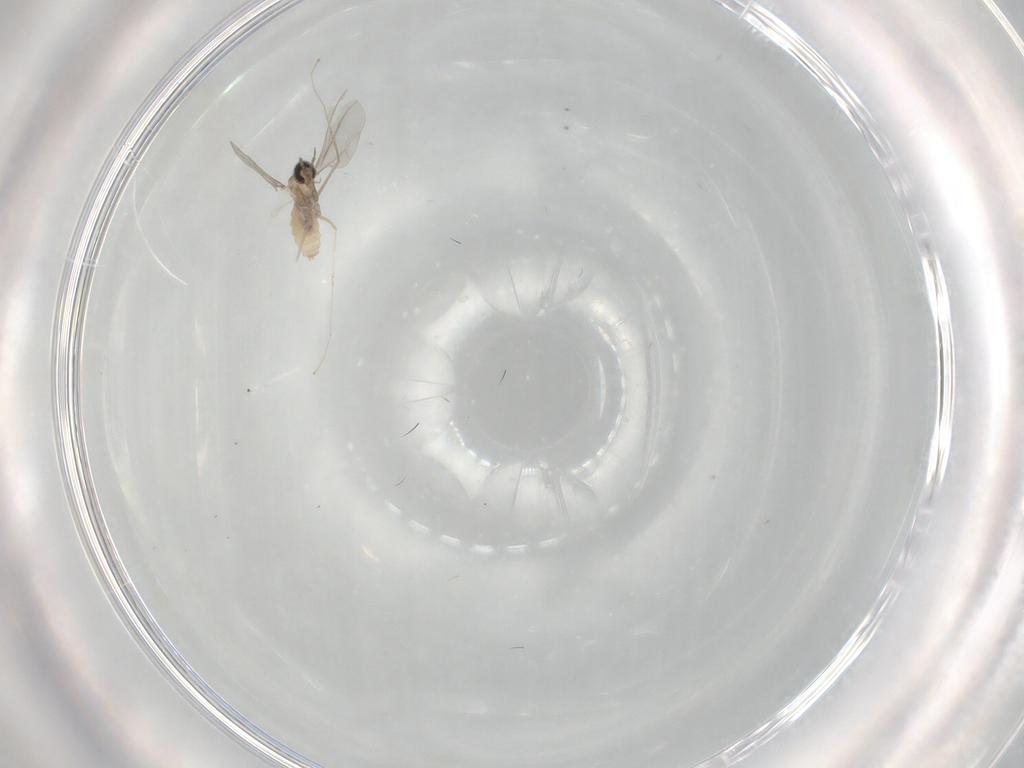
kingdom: Animalia
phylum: Arthropoda
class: Insecta
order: Diptera
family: Cecidomyiidae
